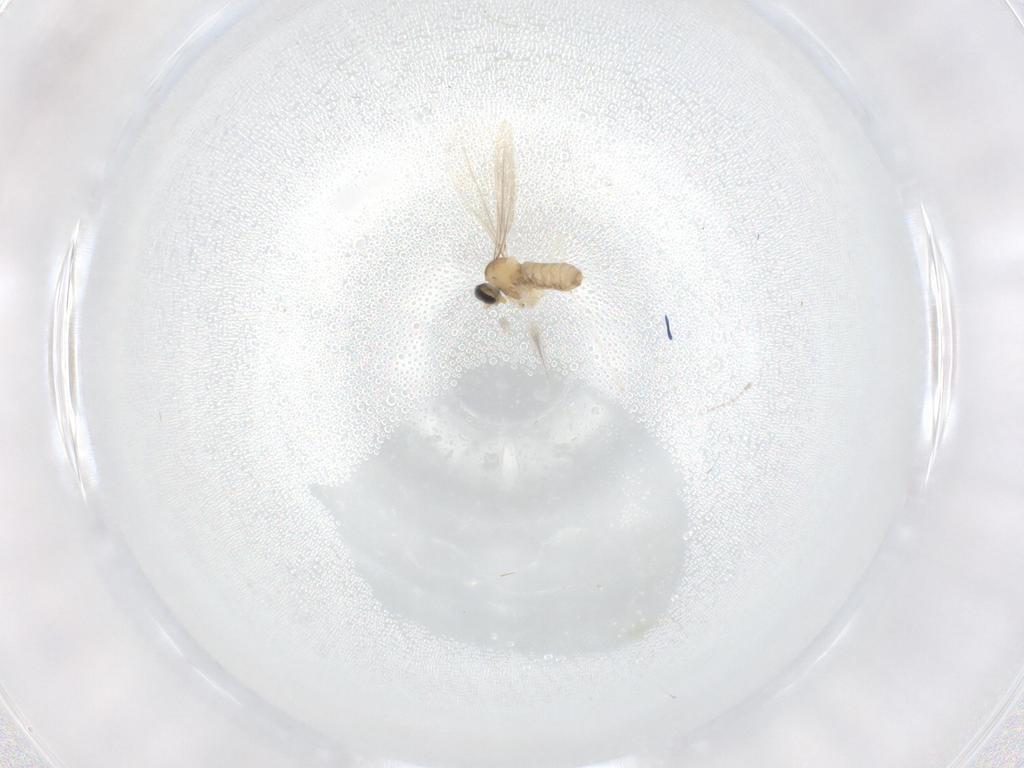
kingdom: Animalia
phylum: Arthropoda
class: Insecta
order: Diptera
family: Cecidomyiidae
